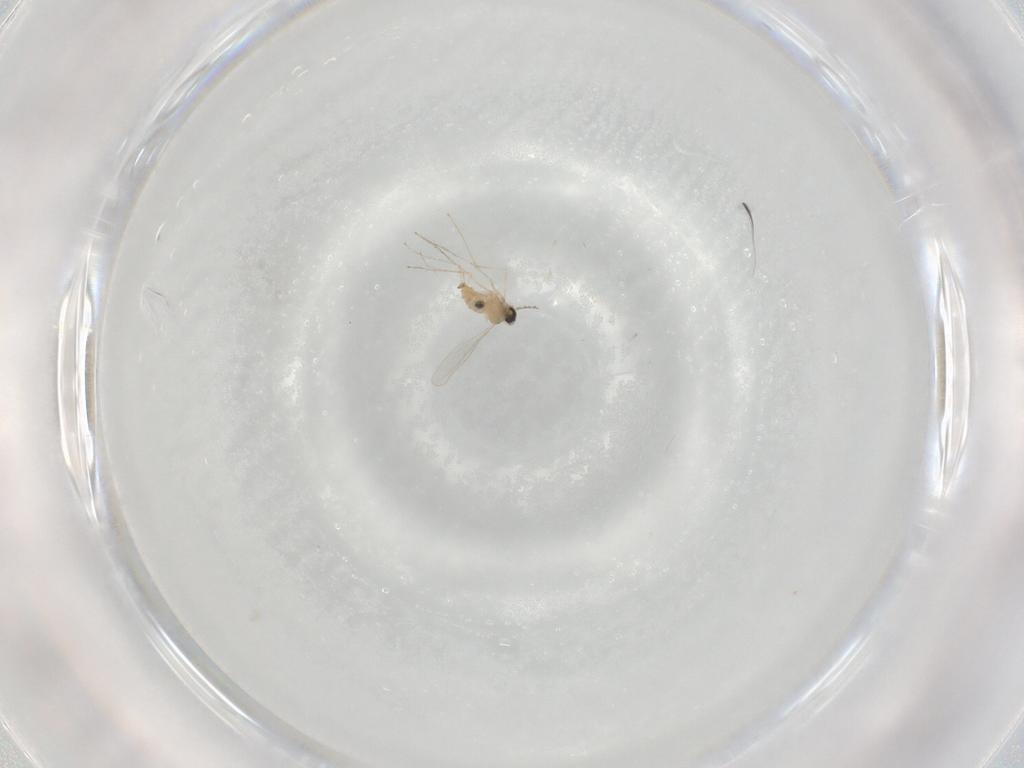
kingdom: Animalia
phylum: Arthropoda
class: Insecta
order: Diptera
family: Cecidomyiidae
